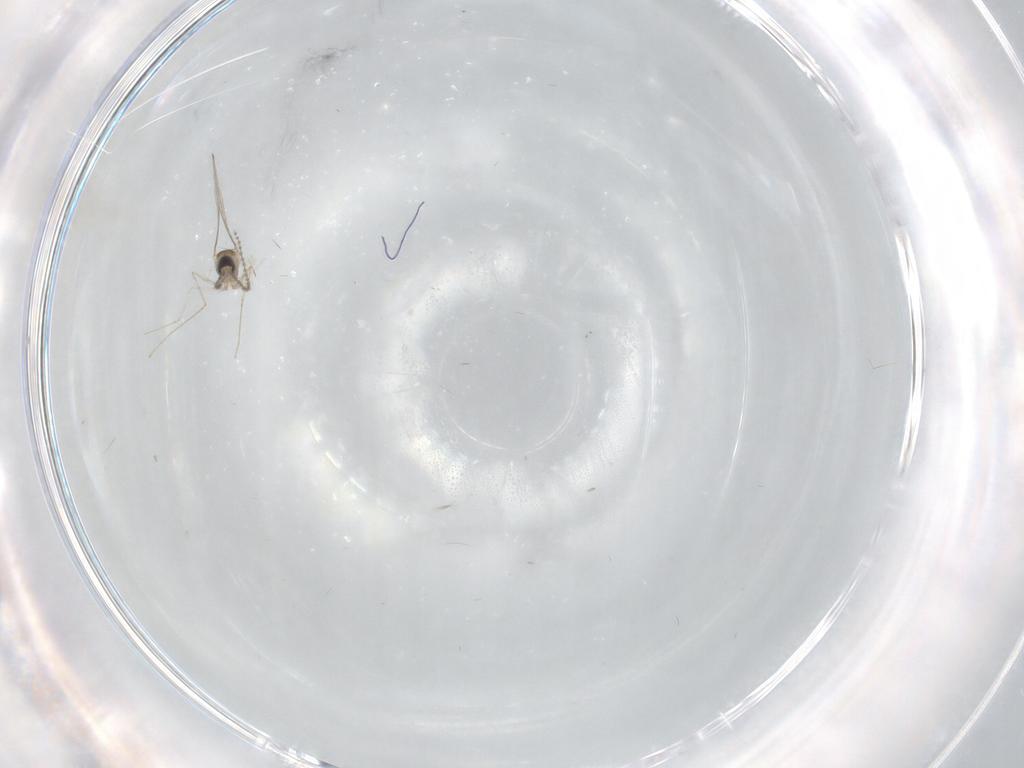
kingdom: Animalia
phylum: Arthropoda
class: Insecta
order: Diptera
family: Cecidomyiidae
